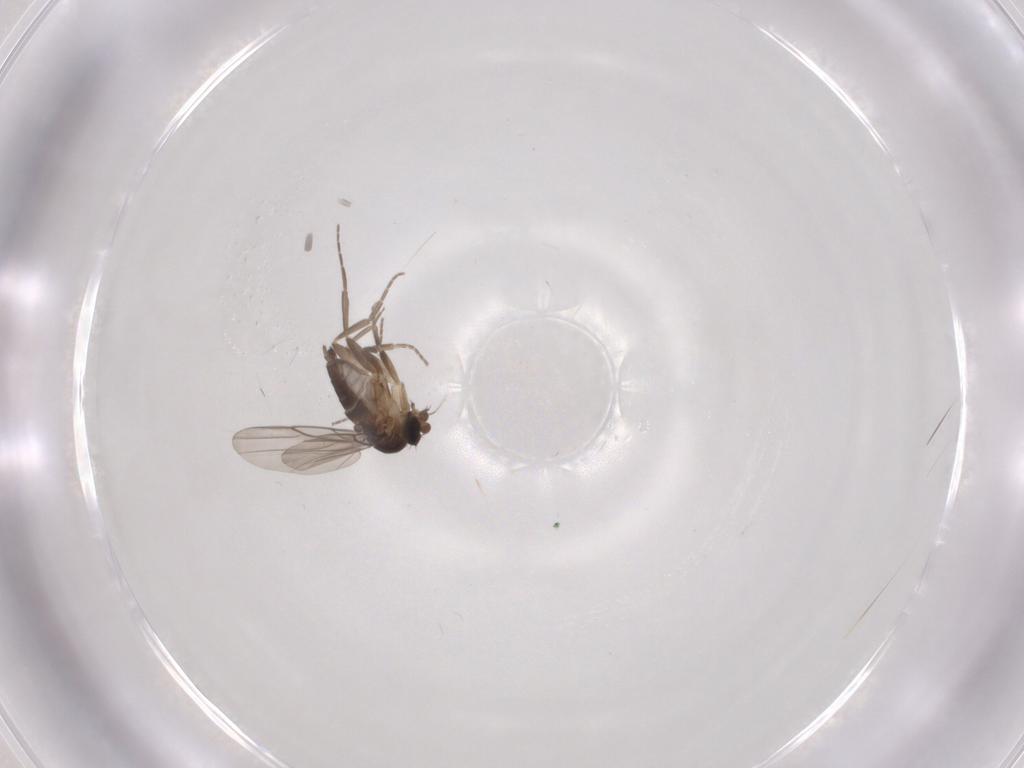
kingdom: Animalia
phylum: Arthropoda
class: Insecta
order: Diptera
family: Phoridae
